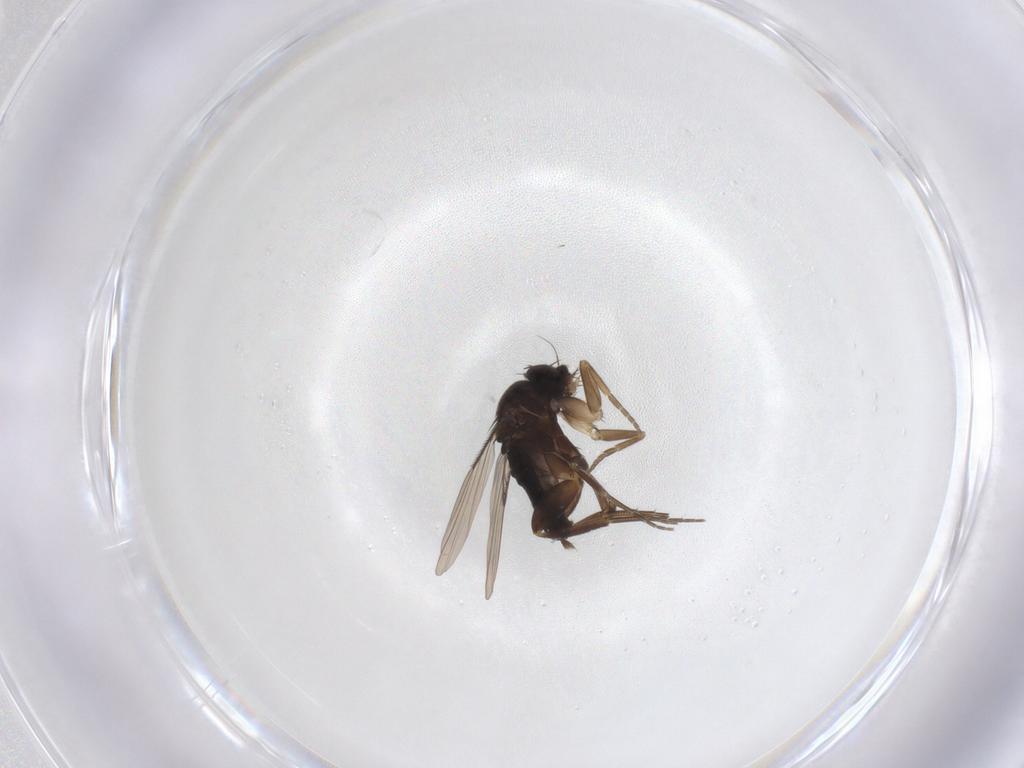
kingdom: Animalia
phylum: Arthropoda
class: Insecta
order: Diptera
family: Phoridae
